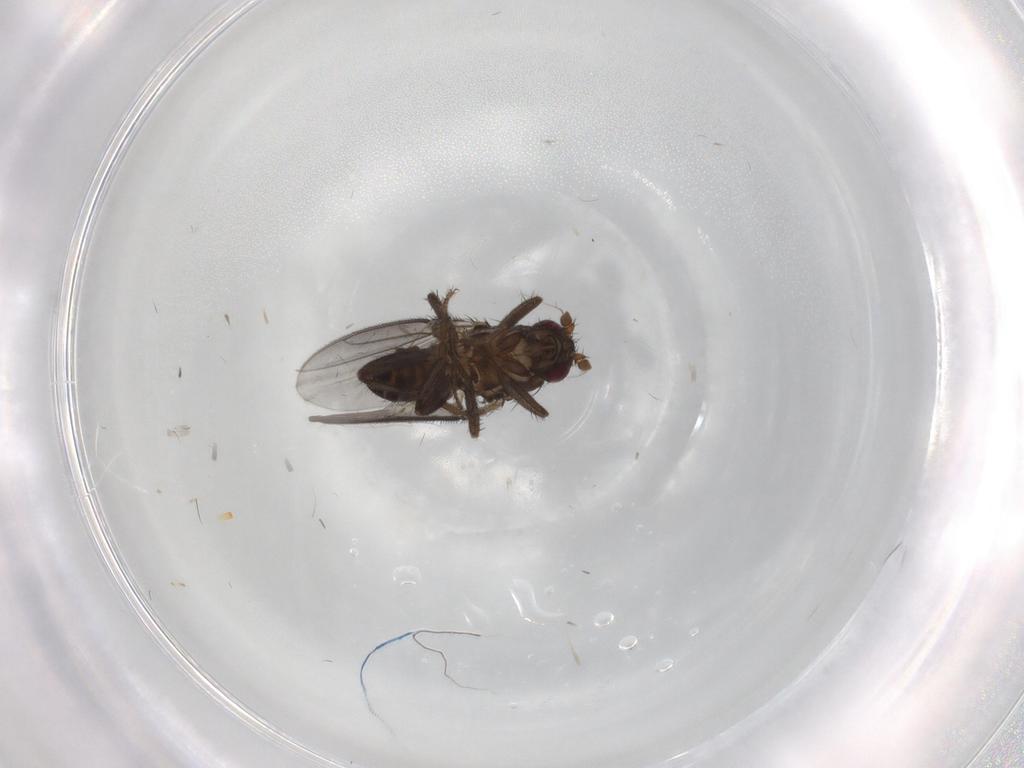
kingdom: Animalia
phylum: Arthropoda
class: Insecta
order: Diptera
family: Sphaeroceridae
